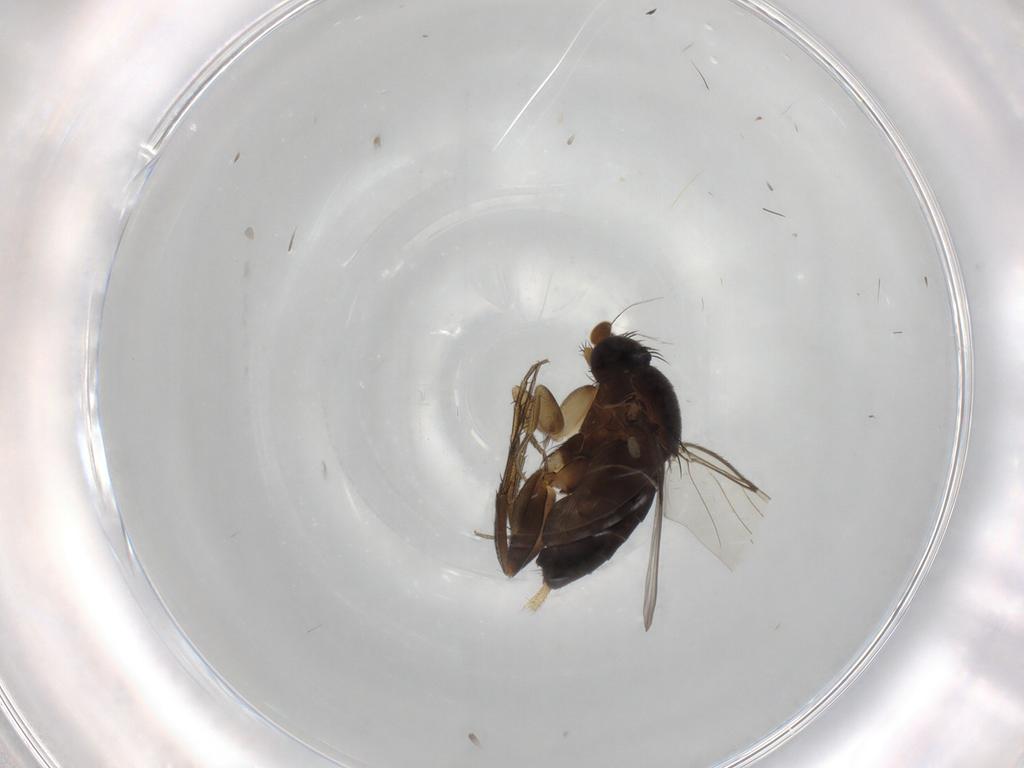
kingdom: Animalia
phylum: Arthropoda
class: Insecta
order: Diptera
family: Phoridae
